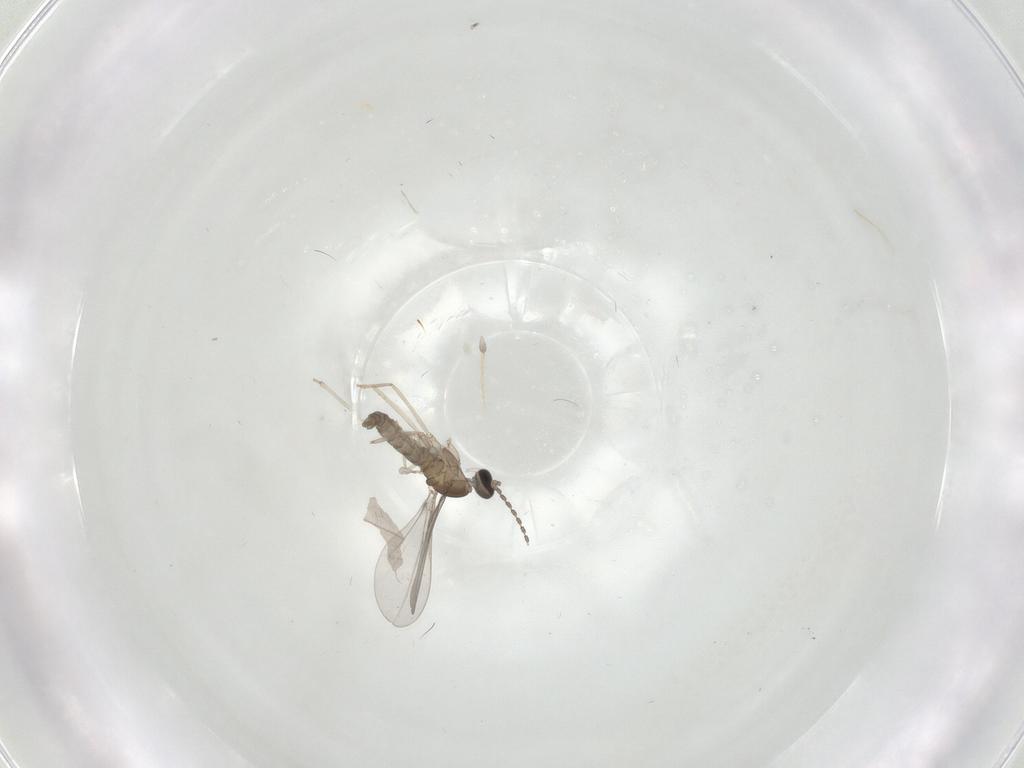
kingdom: Animalia
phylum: Arthropoda
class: Insecta
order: Diptera
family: Cecidomyiidae
